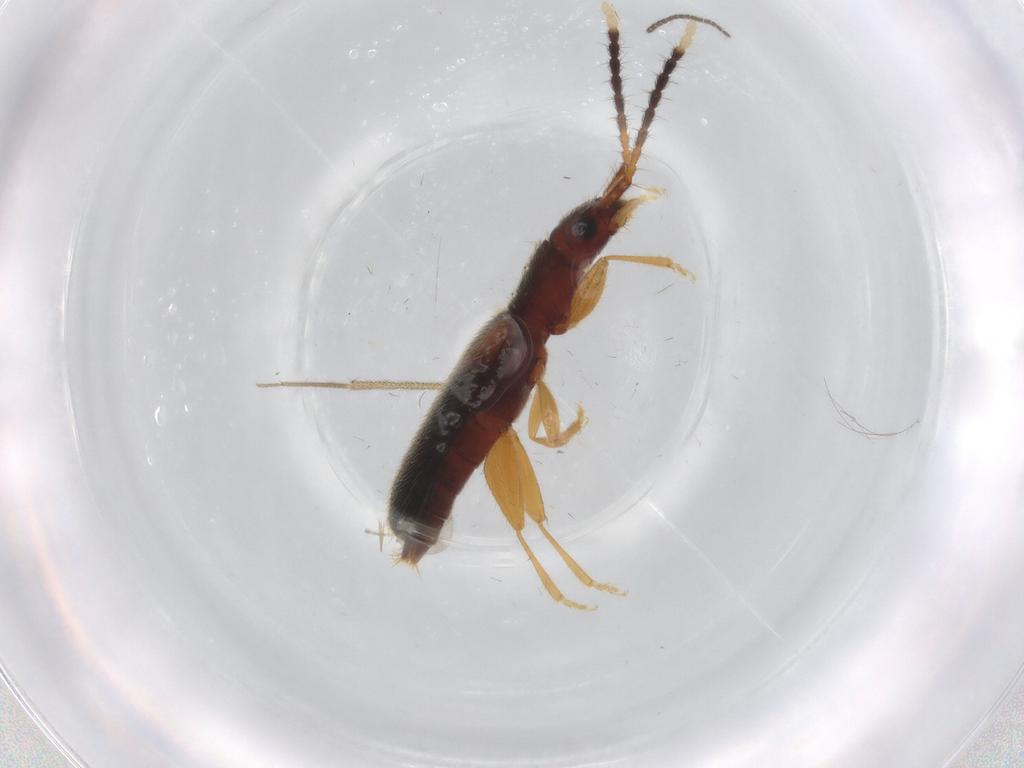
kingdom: Animalia
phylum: Arthropoda
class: Insecta
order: Coleoptera
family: Silvanidae
